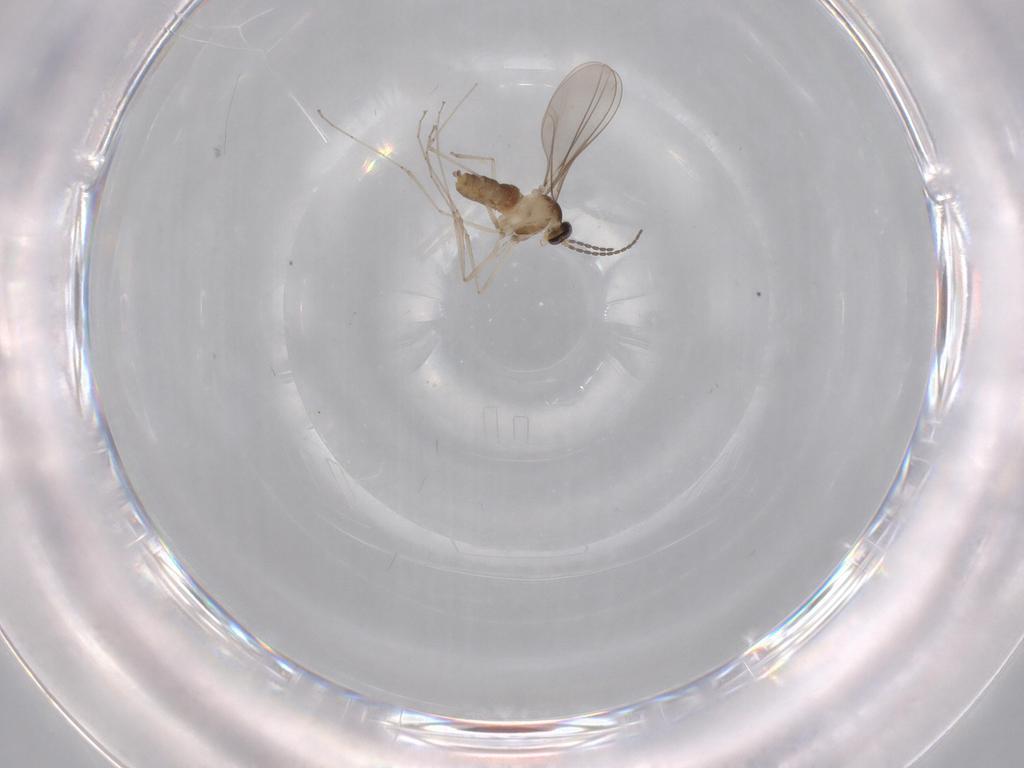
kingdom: Animalia
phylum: Arthropoda
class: Insecta
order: Diptera
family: Cecidomyiidae
